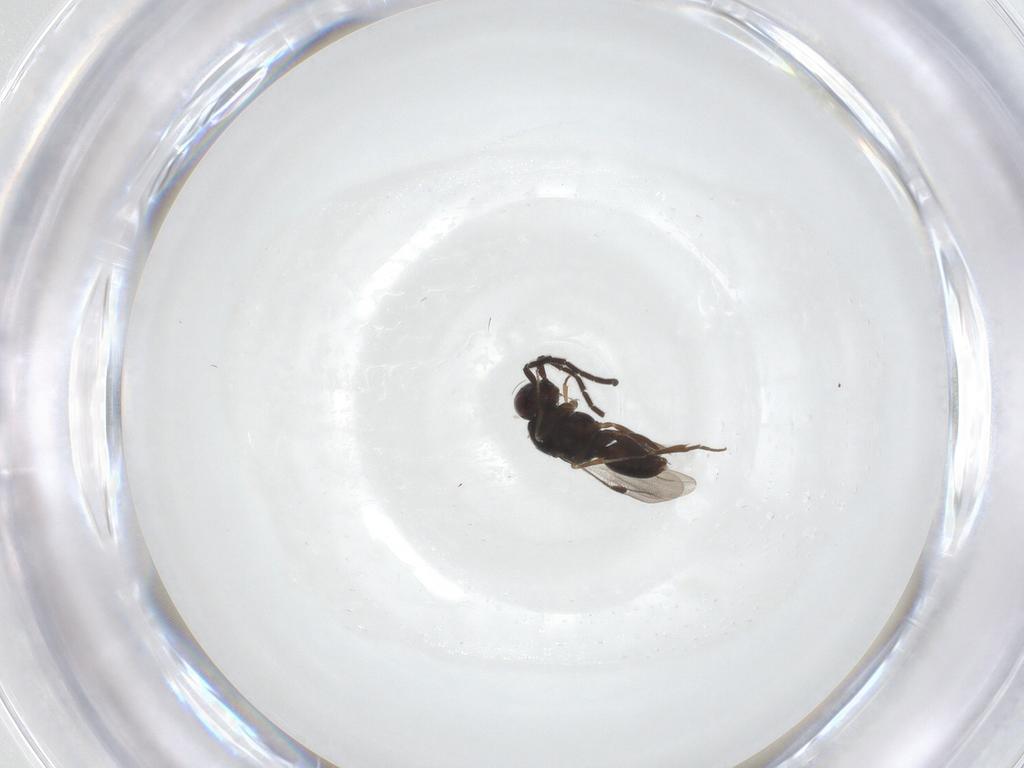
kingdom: Animalia
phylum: Arthropoda
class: Insecta
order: Hymenoptera
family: Megaspilidae
